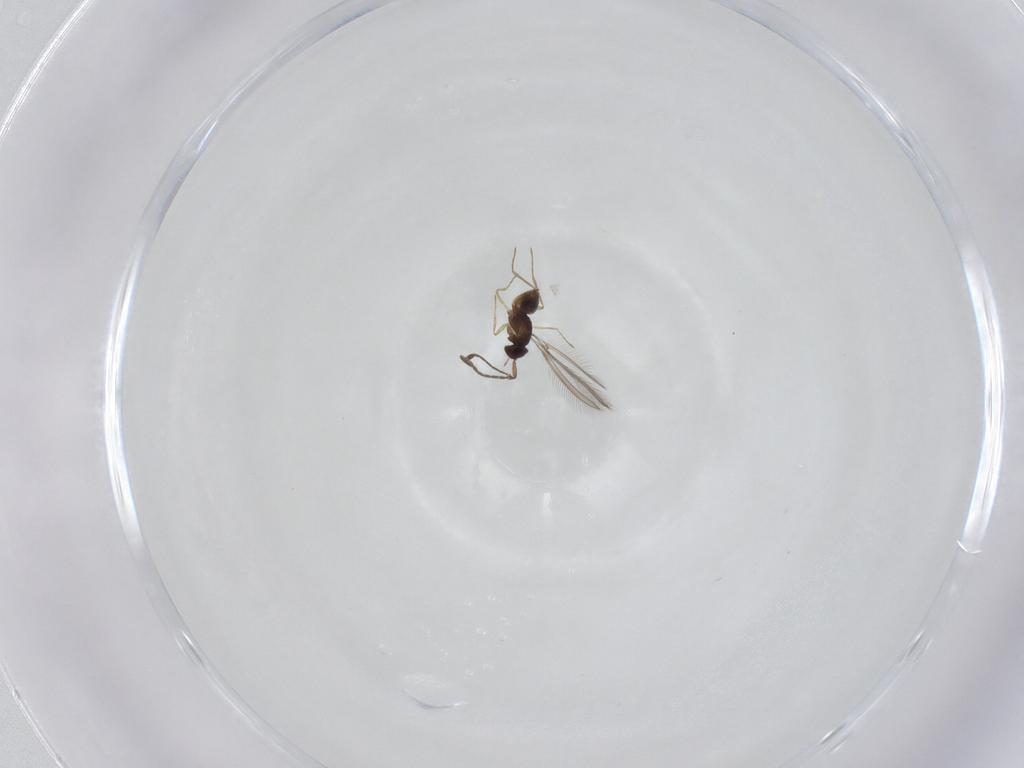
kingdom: Animalia
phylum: Arthropoda
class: Insecta
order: Hymenoptera
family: Mymaridae
